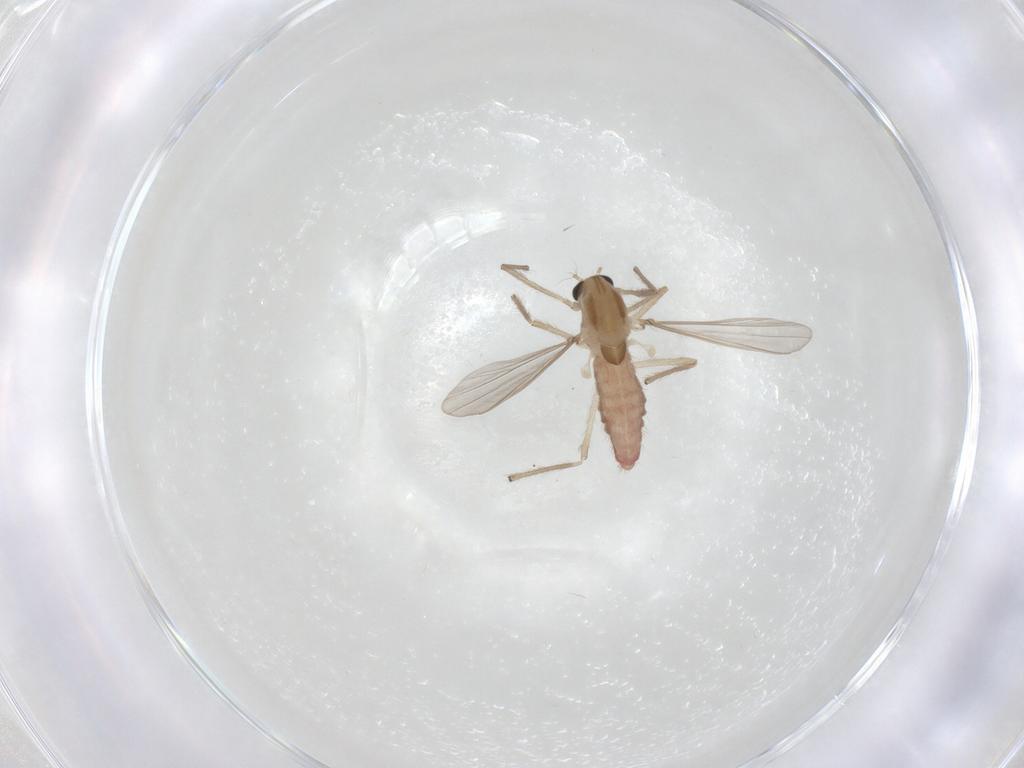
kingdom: Animalia
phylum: Arthropoda
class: Insecta
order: Diptera
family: Chironomidae
